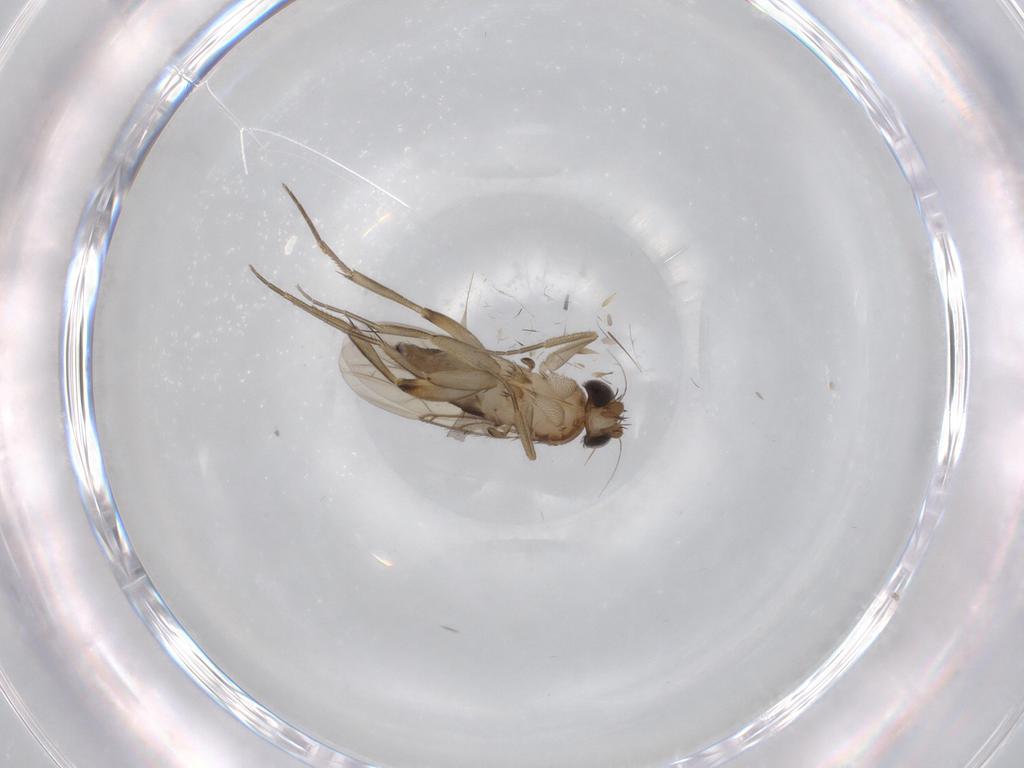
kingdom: Animalia
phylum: Arthropoda
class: Insecta
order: Diptera
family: Phoridae
